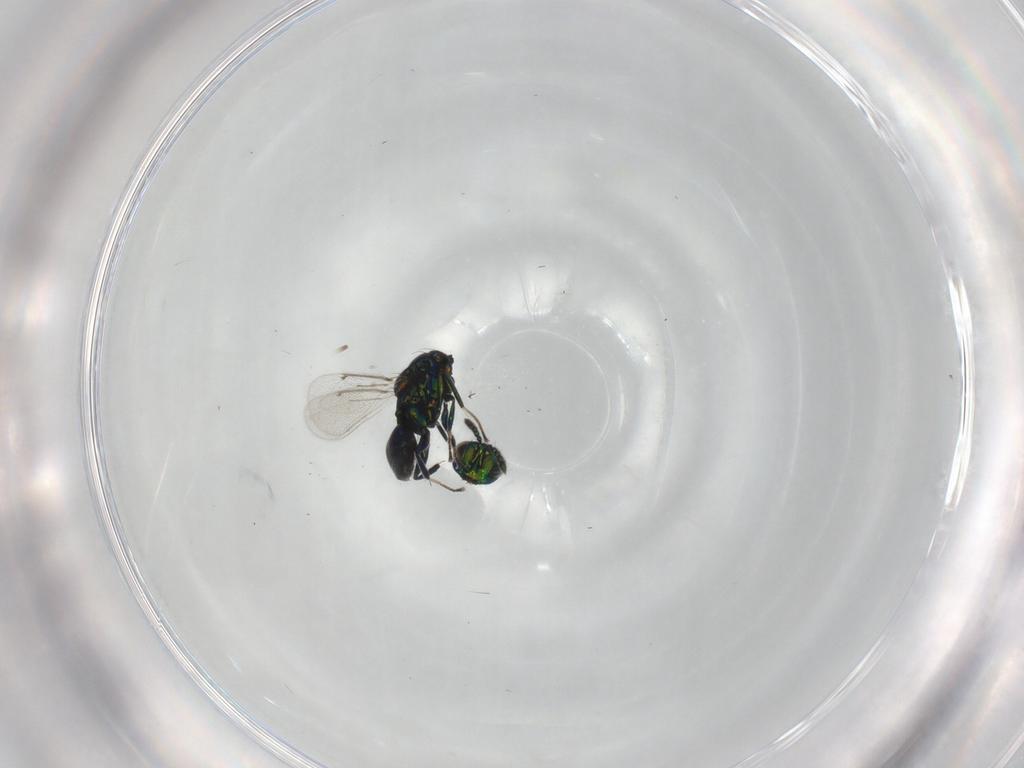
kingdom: Animalia
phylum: Arthropoda
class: Insecta
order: Hymenoptera
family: Eulophidae
